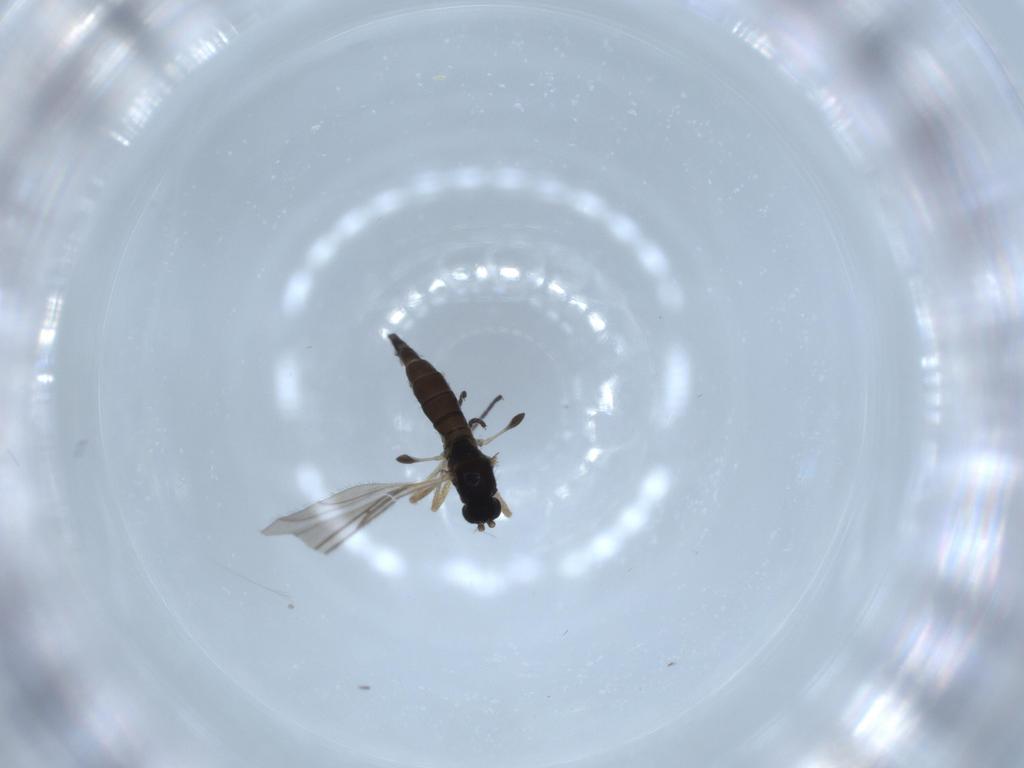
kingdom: Animalia
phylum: Arthropoda
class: Insecta
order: Diptera
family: Sciaridae
